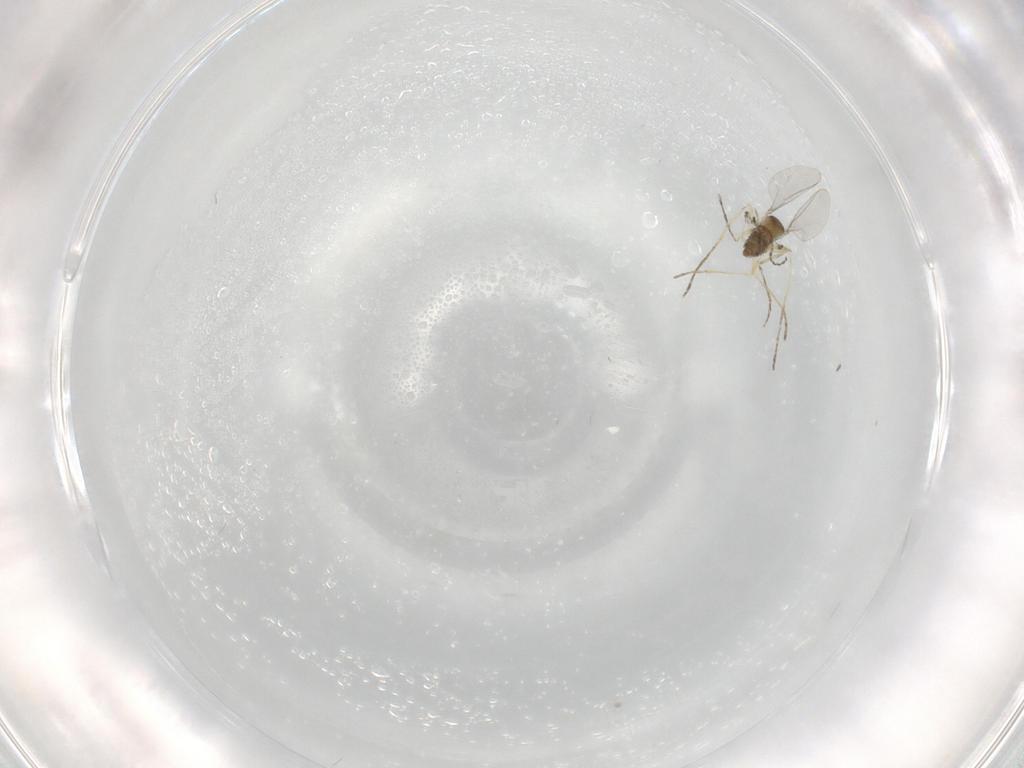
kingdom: Animalia
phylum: Arthropoda
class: Insecta
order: Diptera
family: Cecidomyiidae
